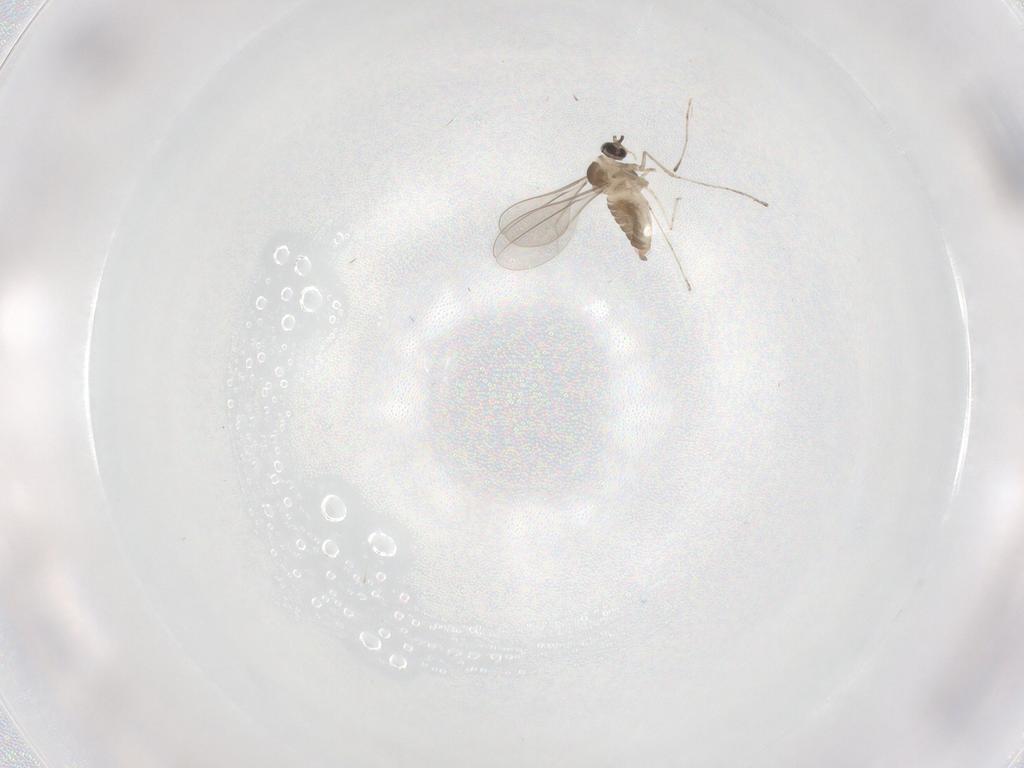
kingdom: Animalia
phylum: Arthropoda
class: Insecta
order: Diptera
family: Cecidomyiidae
